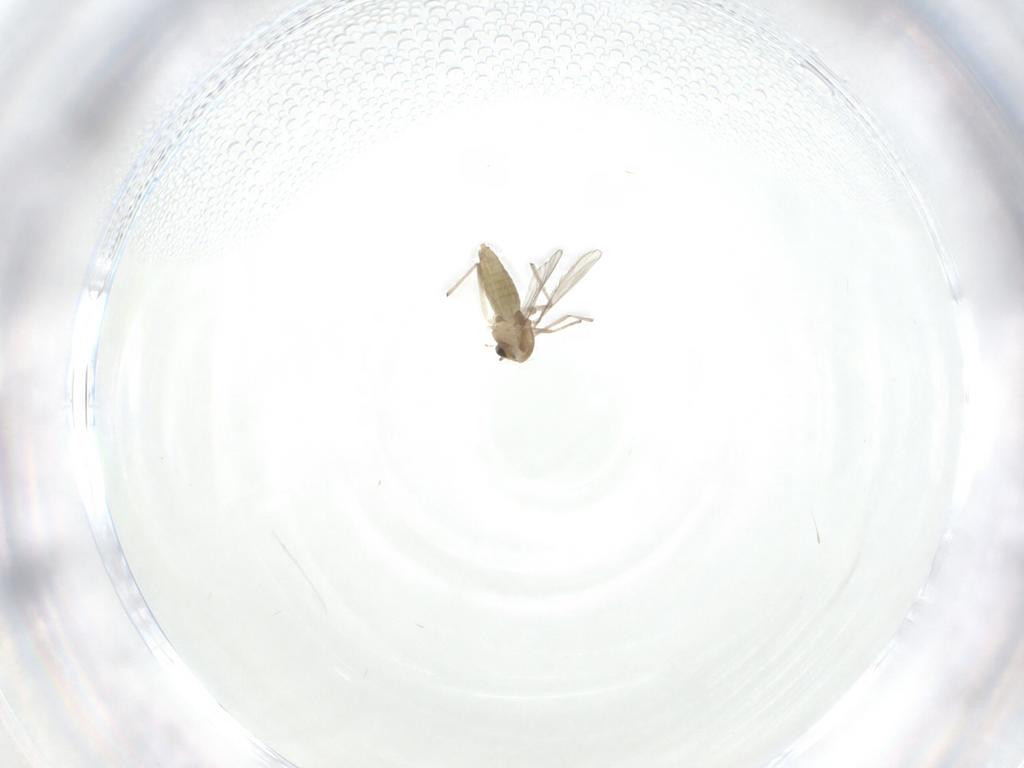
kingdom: Animalia
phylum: Arthropoda
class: Insecta
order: Diptera
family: Chironomidae
